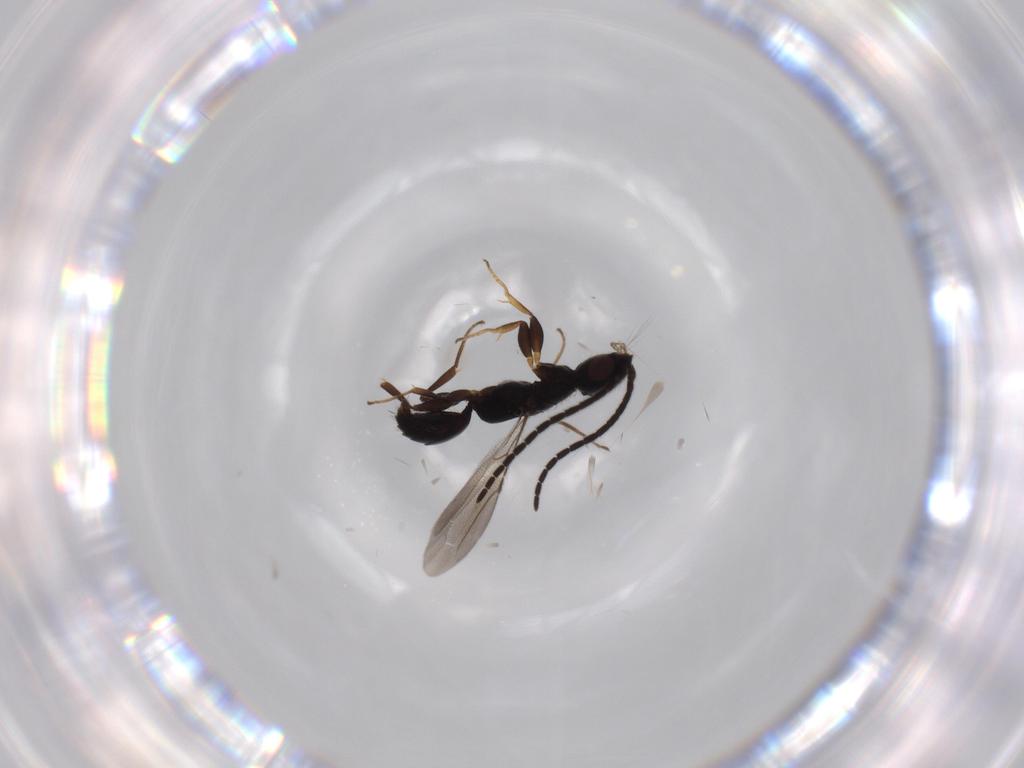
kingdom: Animalia
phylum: Arthropoda
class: Insecta
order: Hymenoptera
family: Bethylidae
